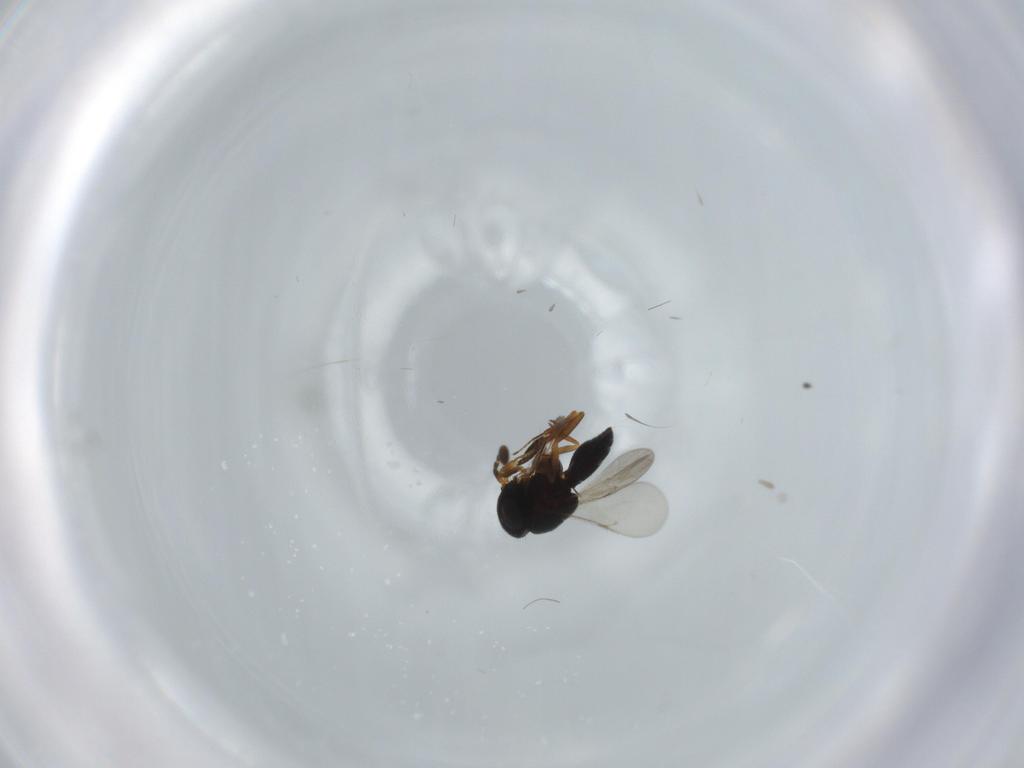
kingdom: Animalia
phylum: Arthropoda
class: Insecta
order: Coleoptera
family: Curculionidae
